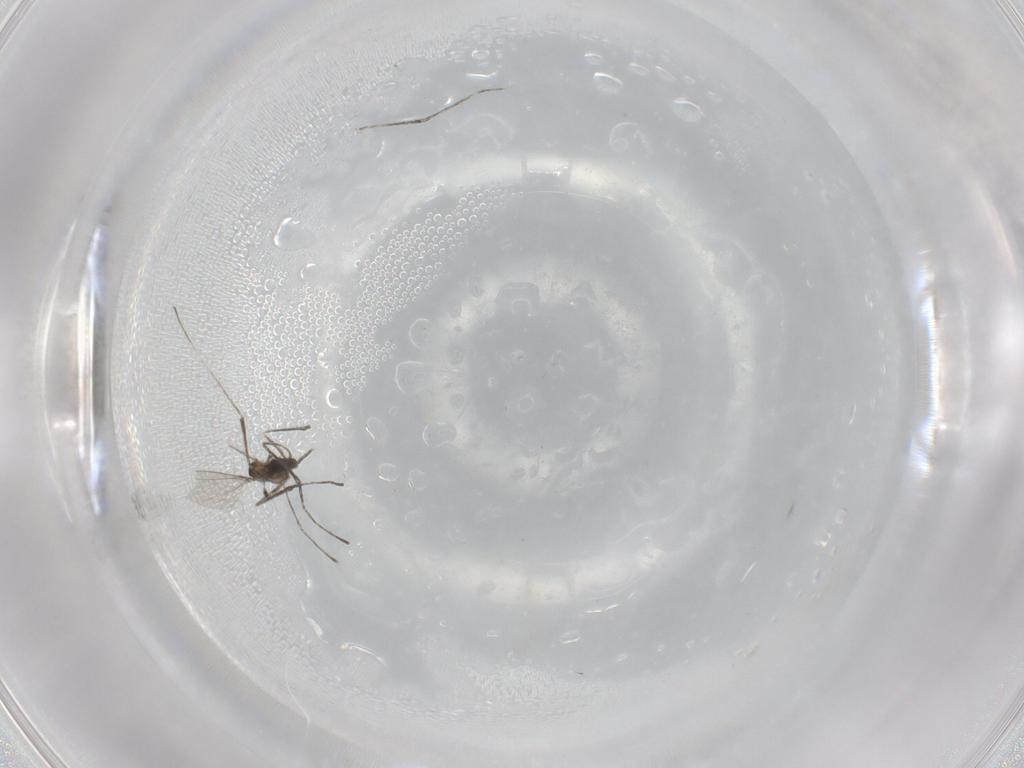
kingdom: Animalia
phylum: Arthropoda
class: Insecta
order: Diptera
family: Cecidomyiidae
